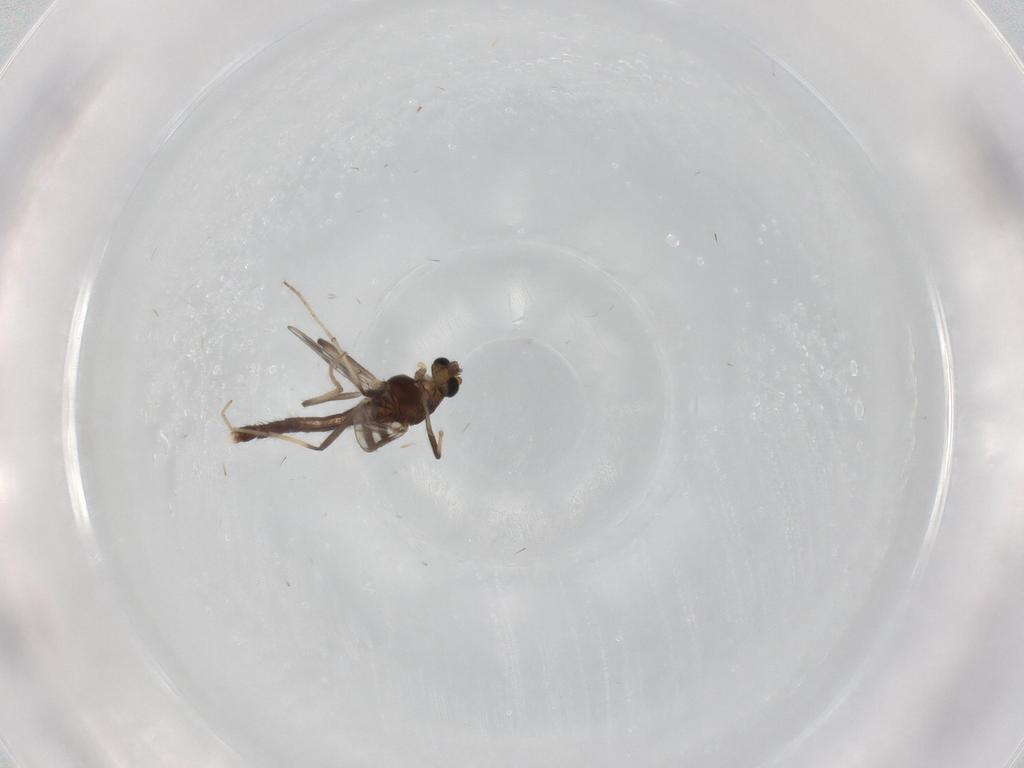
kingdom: Animalia
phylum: Arthropoda
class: Insecta
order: Diptera
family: Chironomidae
